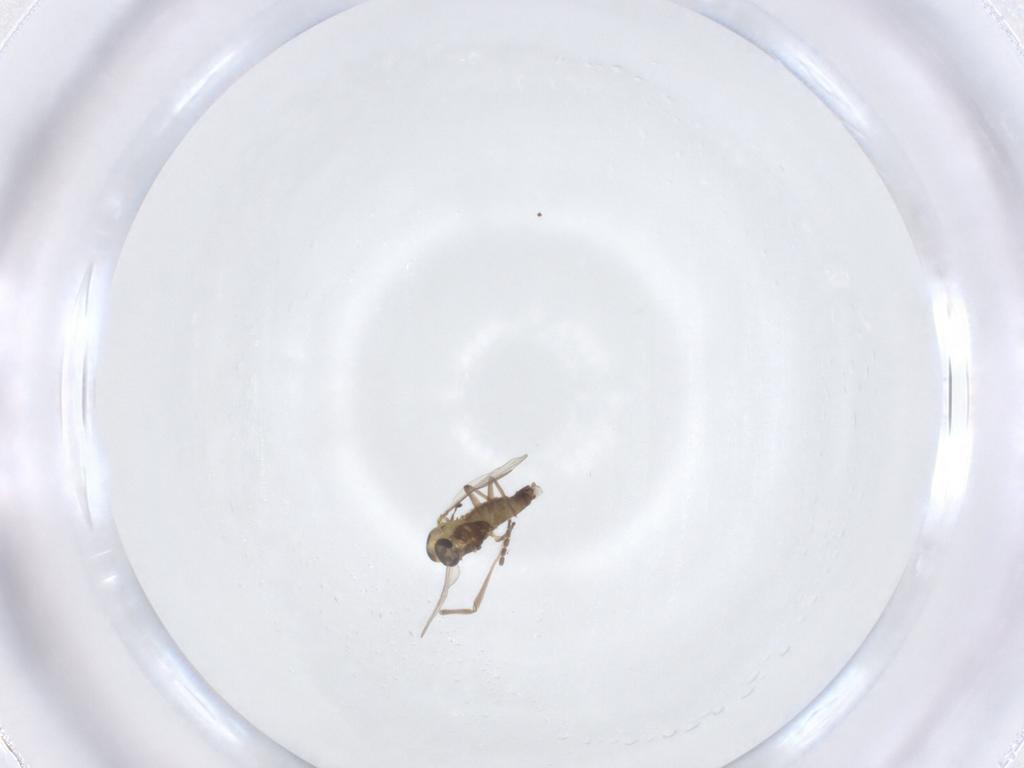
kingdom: Animalia
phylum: Arthropoda
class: Insecta
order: Diptera
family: Chironomidae
